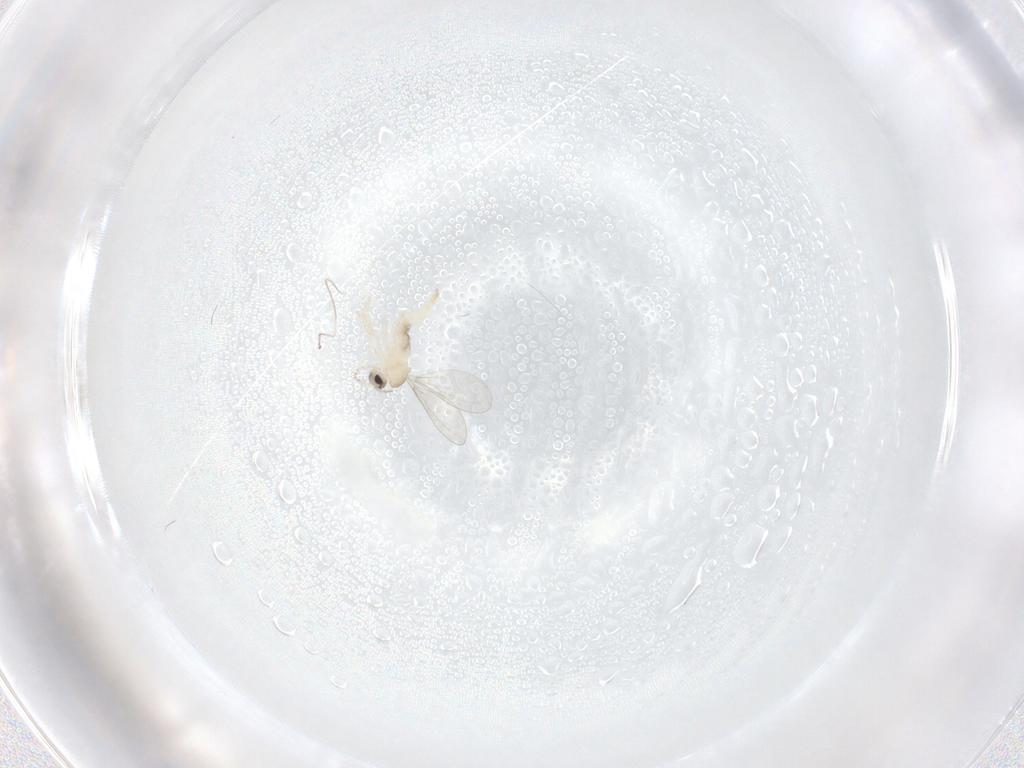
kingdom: Animalia
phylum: Arthropoda
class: Insecta
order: Diptera
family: Cecidomyiidae
